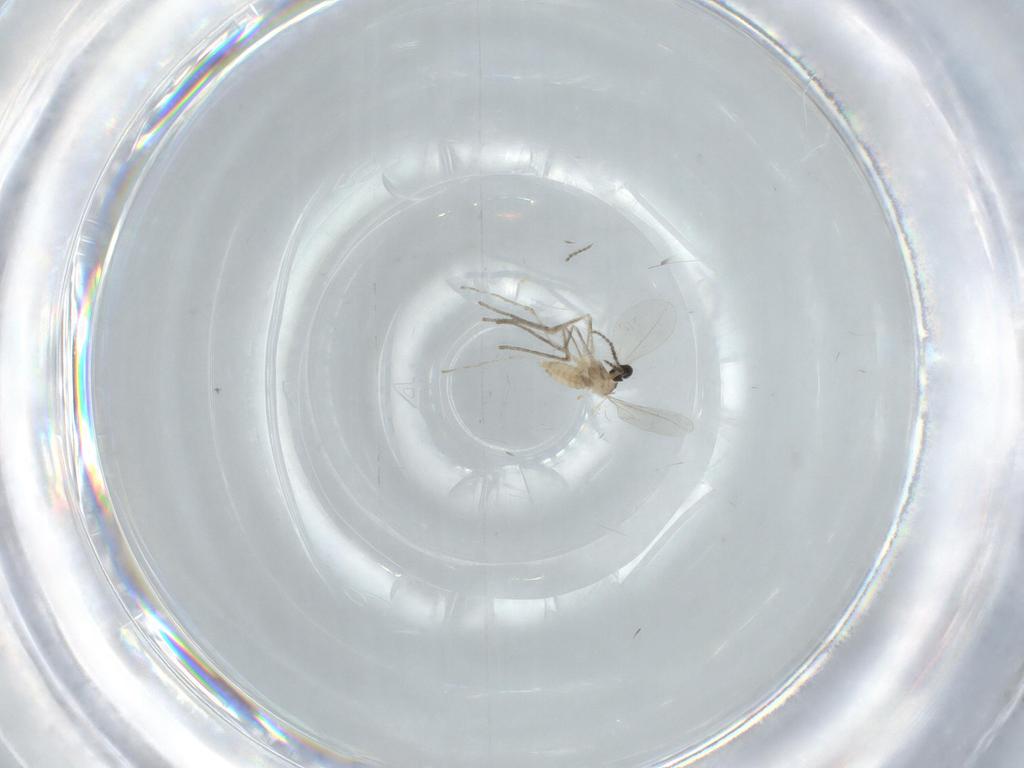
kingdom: Animalia
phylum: Arthropoda
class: Insecta
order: Diptera
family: Cecidomyiidae
